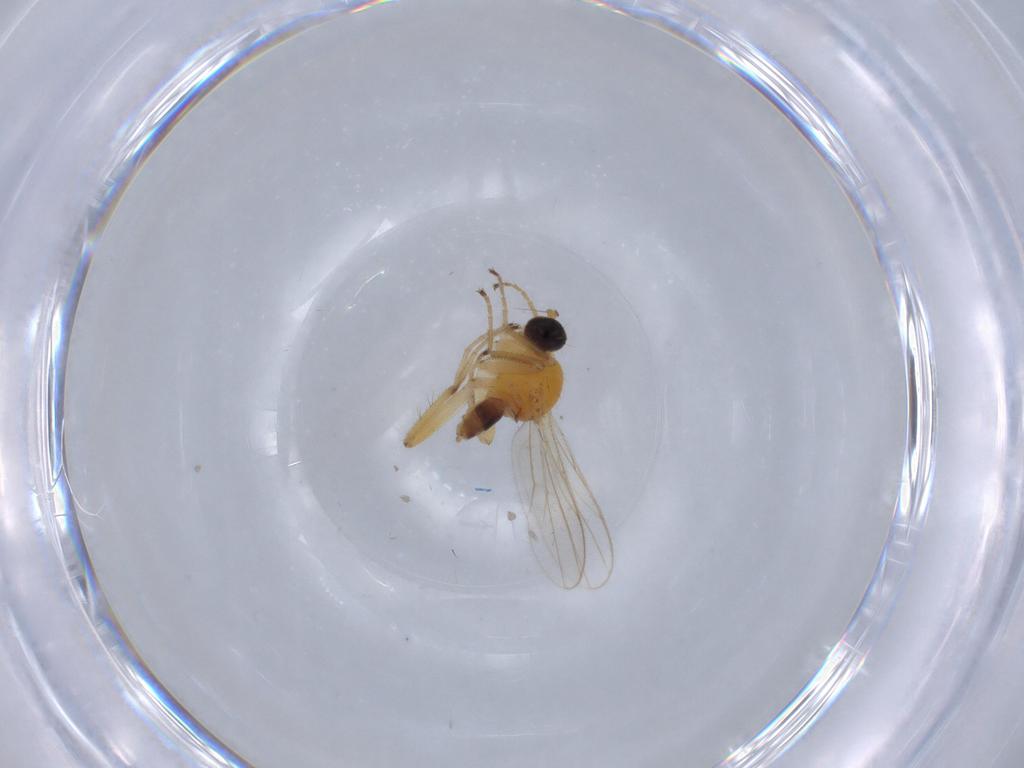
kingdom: Animalia
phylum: Arthropoda
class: Insecta
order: Diptera
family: Hybotidae
